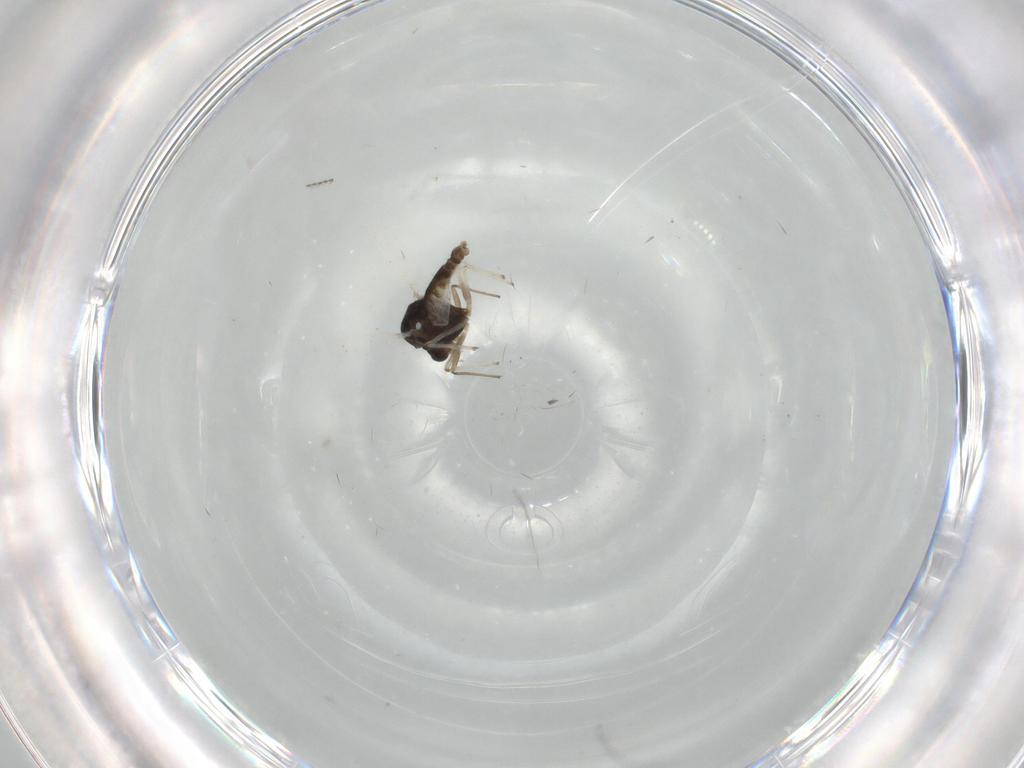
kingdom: Animalia
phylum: Arthropoda
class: Insecta
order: Diptera
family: Chironomidae
